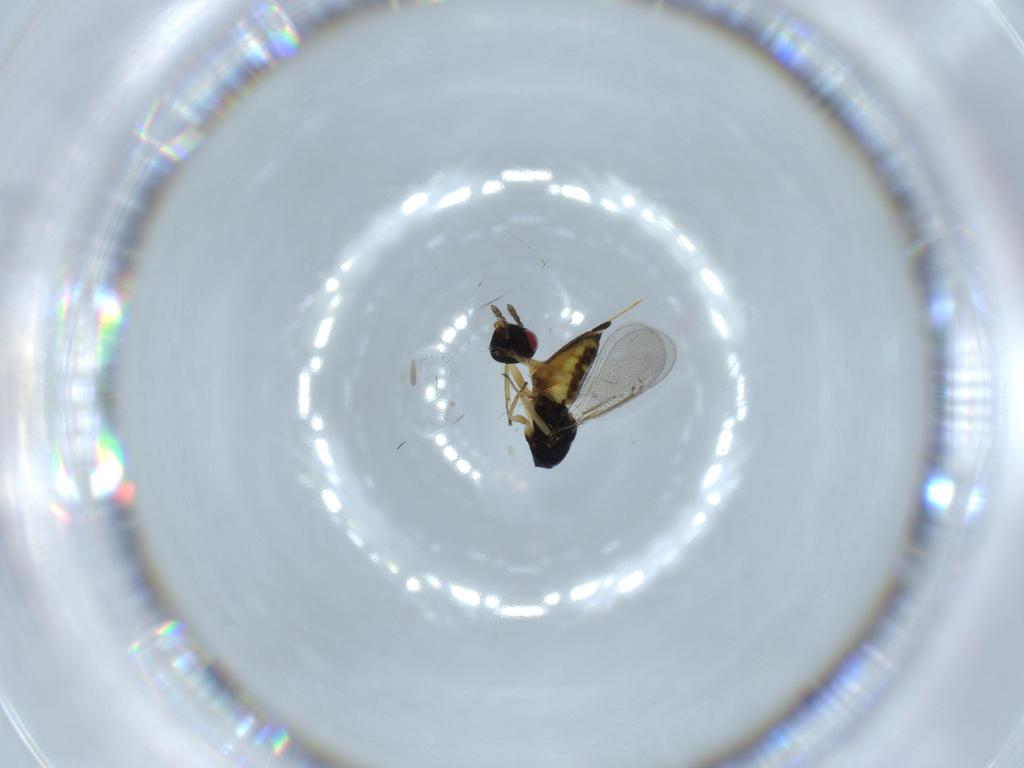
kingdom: Animalia
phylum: Arthropoda
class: Insecta
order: Hymenoptera
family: Eulophidae
